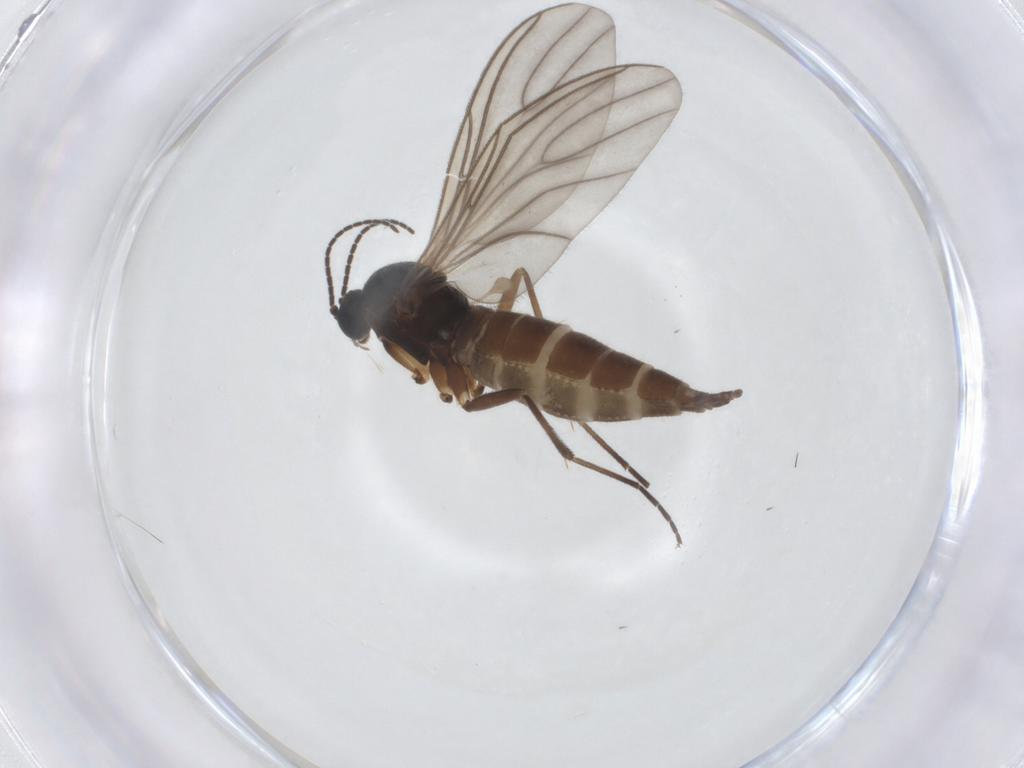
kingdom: Animalia
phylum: Arthropoda
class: Insecta
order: Diptera
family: Sciaridae
